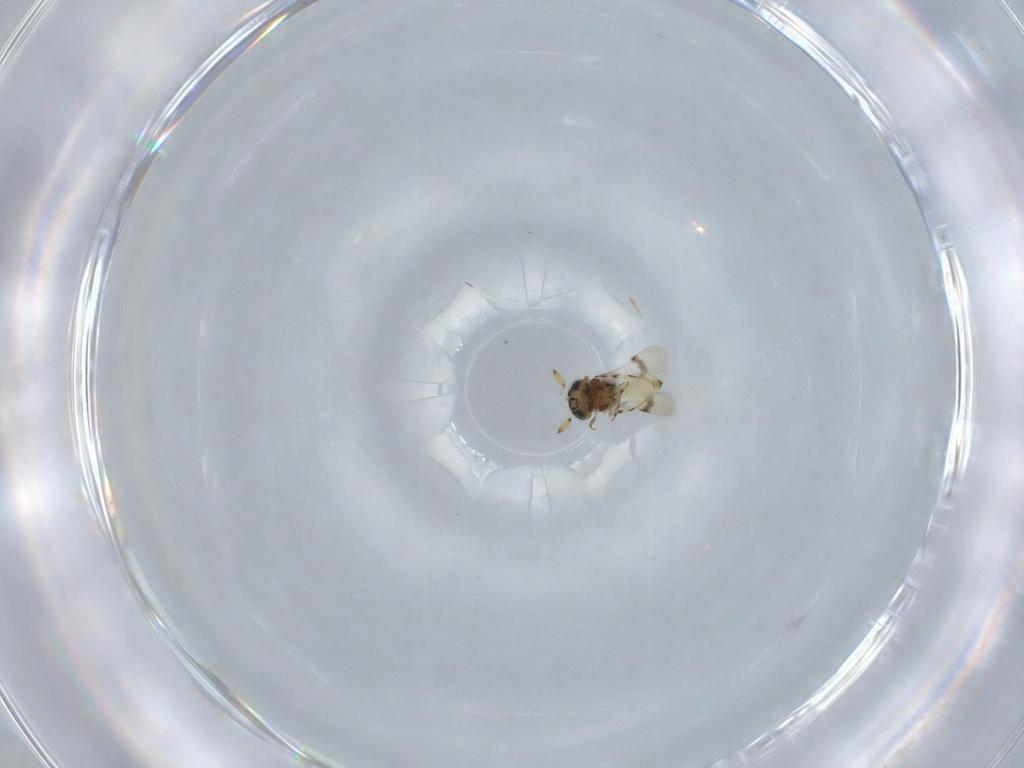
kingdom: Animalia
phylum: Arthropoda
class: Insecta
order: Hymenoptera
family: Scelionidae
